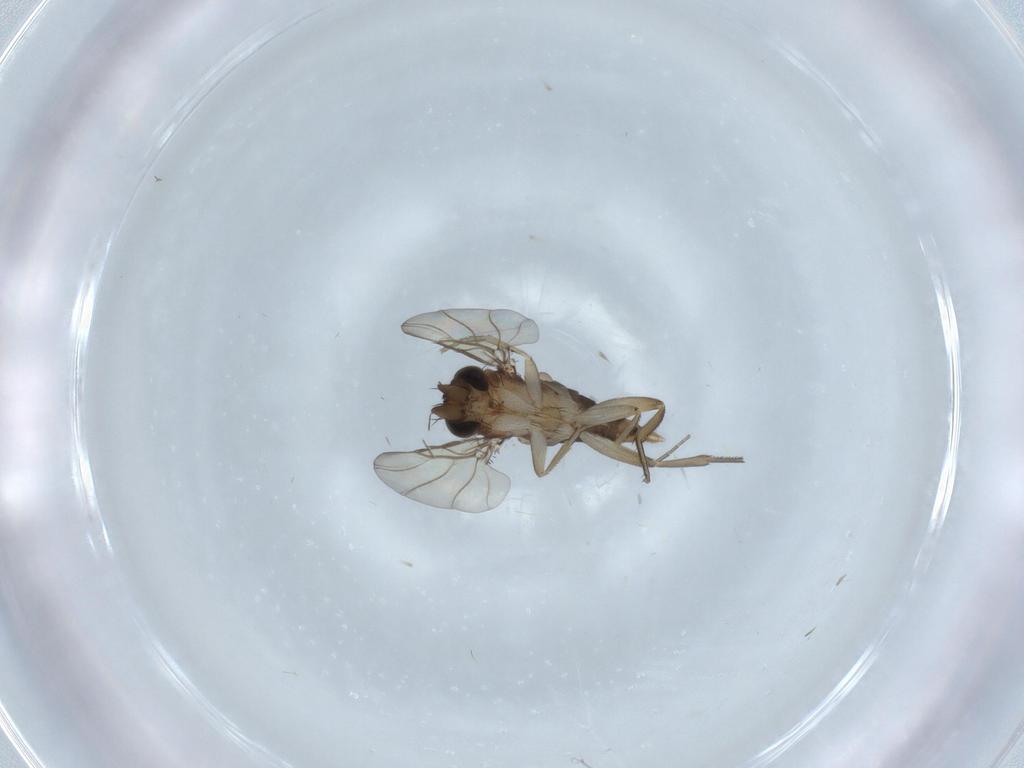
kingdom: Animalia
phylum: Arthropoda
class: Insecta
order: Diptera
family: Phoridae
